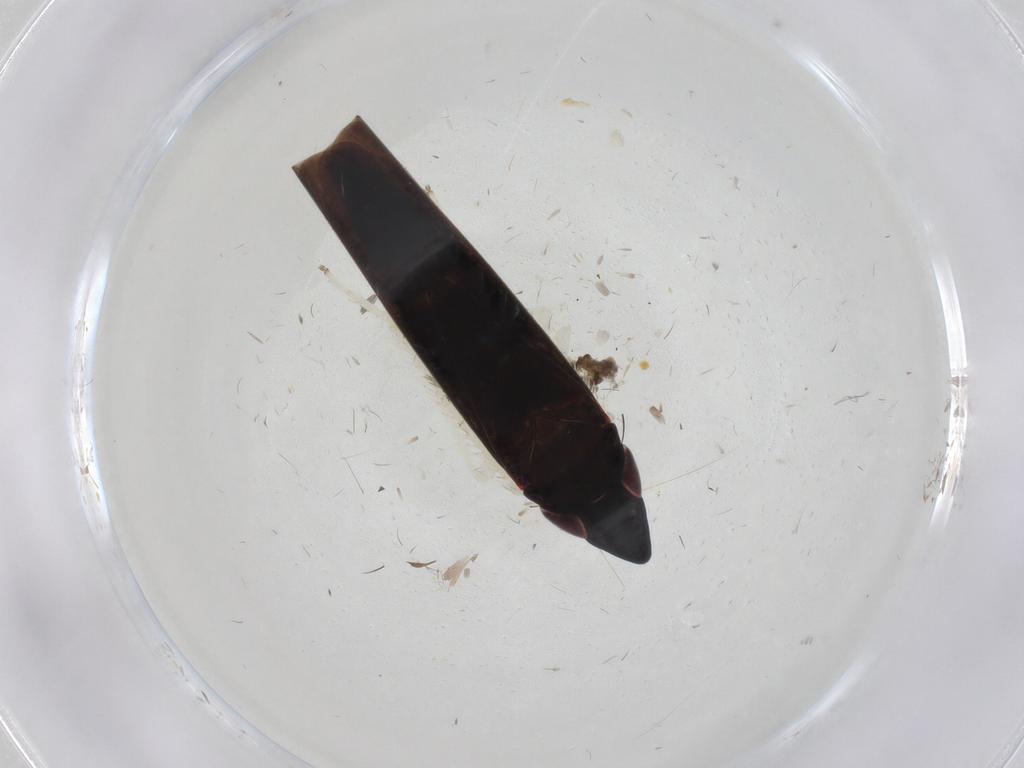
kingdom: Animalia
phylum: Arthropoda
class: Insecta
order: Hemiptera
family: Cicadellidae
